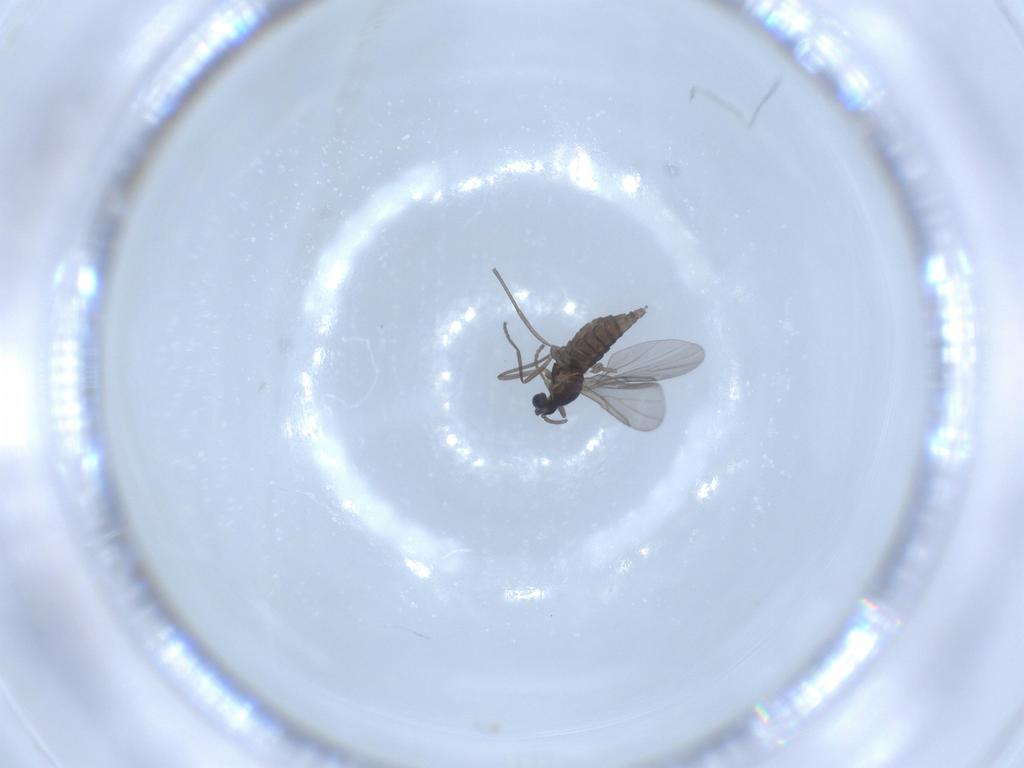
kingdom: Animalia
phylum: Arthropoda
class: Insecta
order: Diptera
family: Cecidomyiidae
